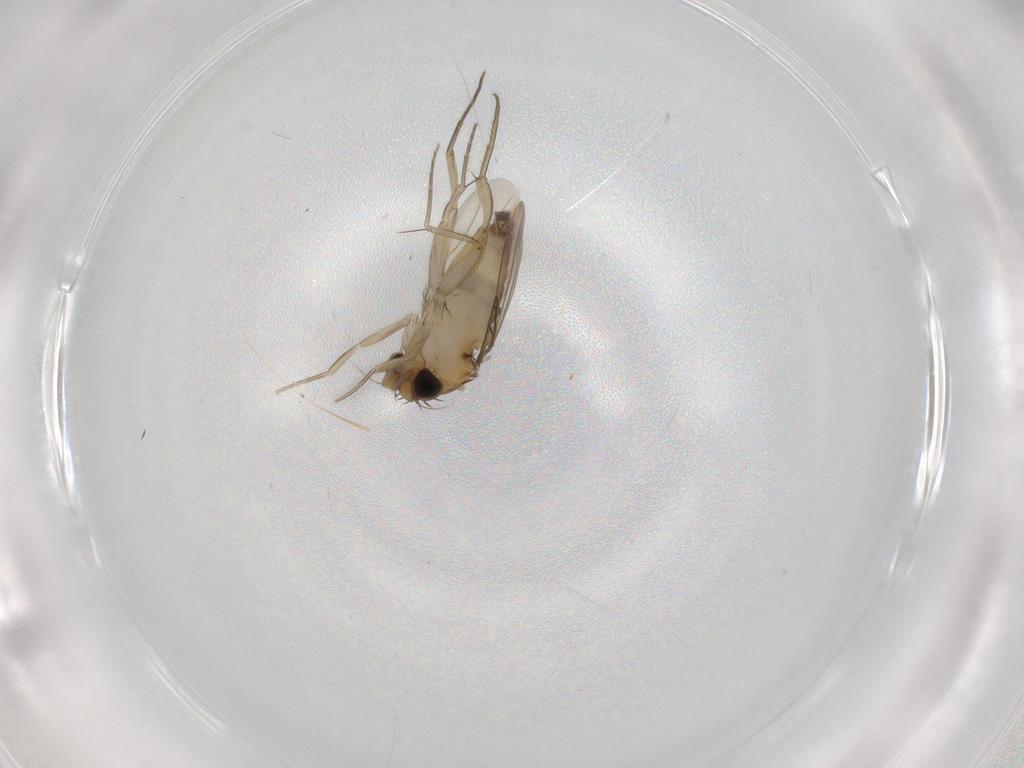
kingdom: Animalia
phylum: Arthropoda
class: Insecta
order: Diptera
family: Phoridae
